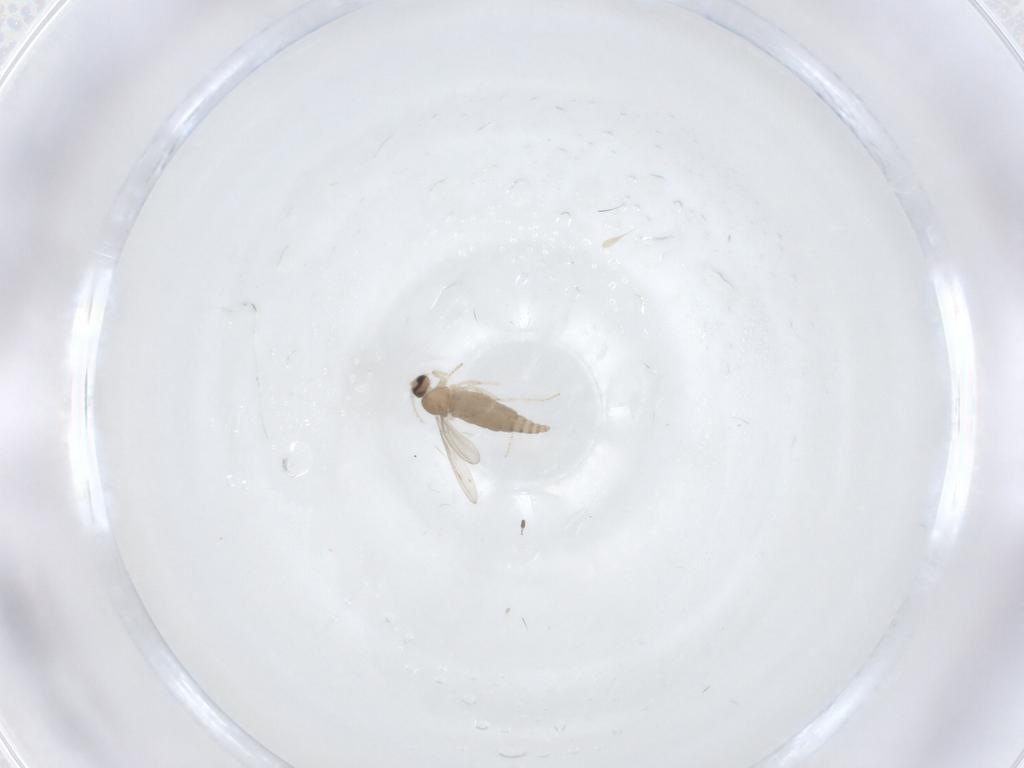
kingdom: Animalia
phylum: Arthropoda
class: Insecta
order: Diptera
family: Cecidomyiidae
